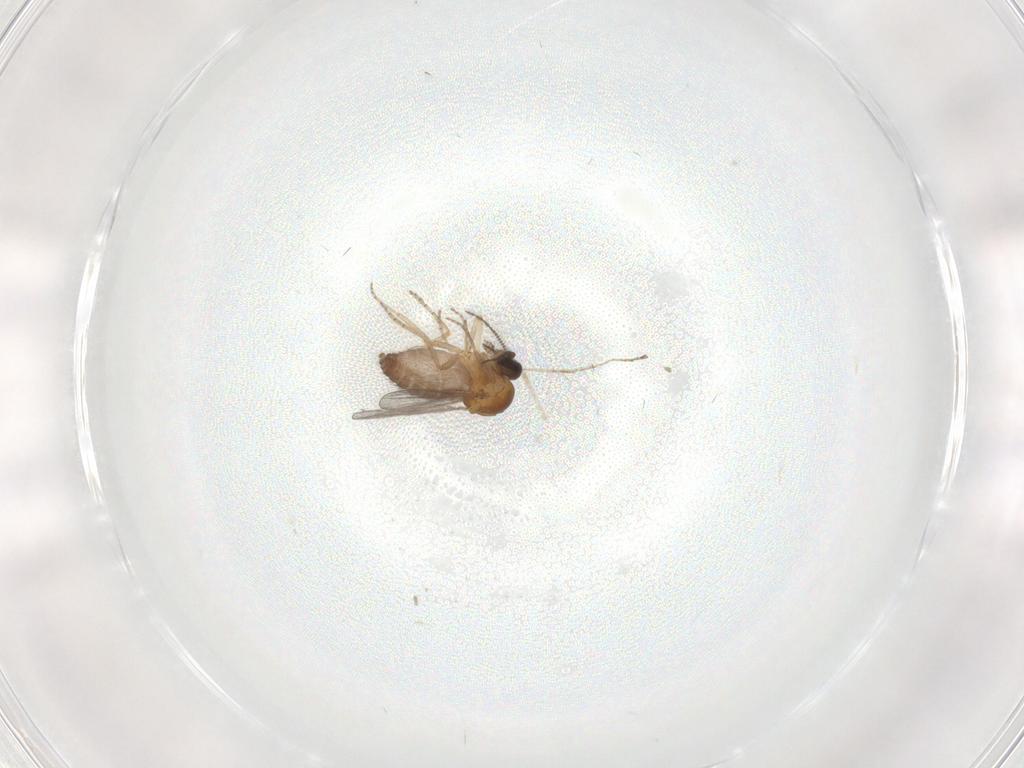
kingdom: Animalia
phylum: Arthropoda
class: Insecta
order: Diptera
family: Ceratopogonidae
